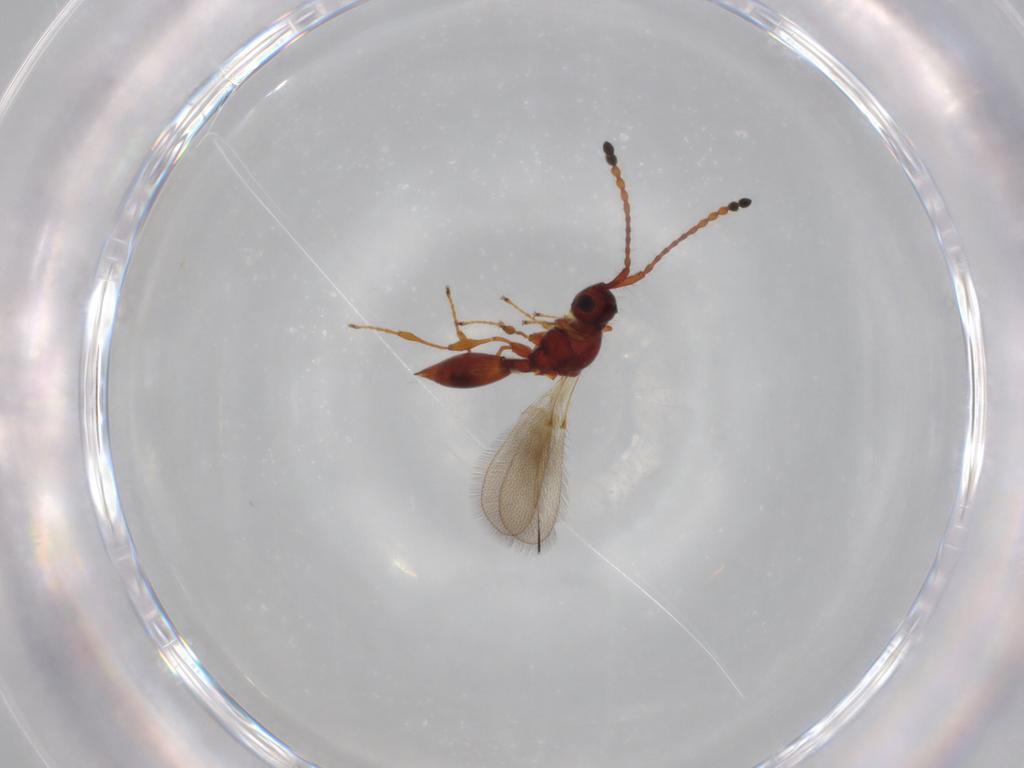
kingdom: Animalia
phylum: Arthropoda
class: Insecta
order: Hymenoptera
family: Diapriidae
